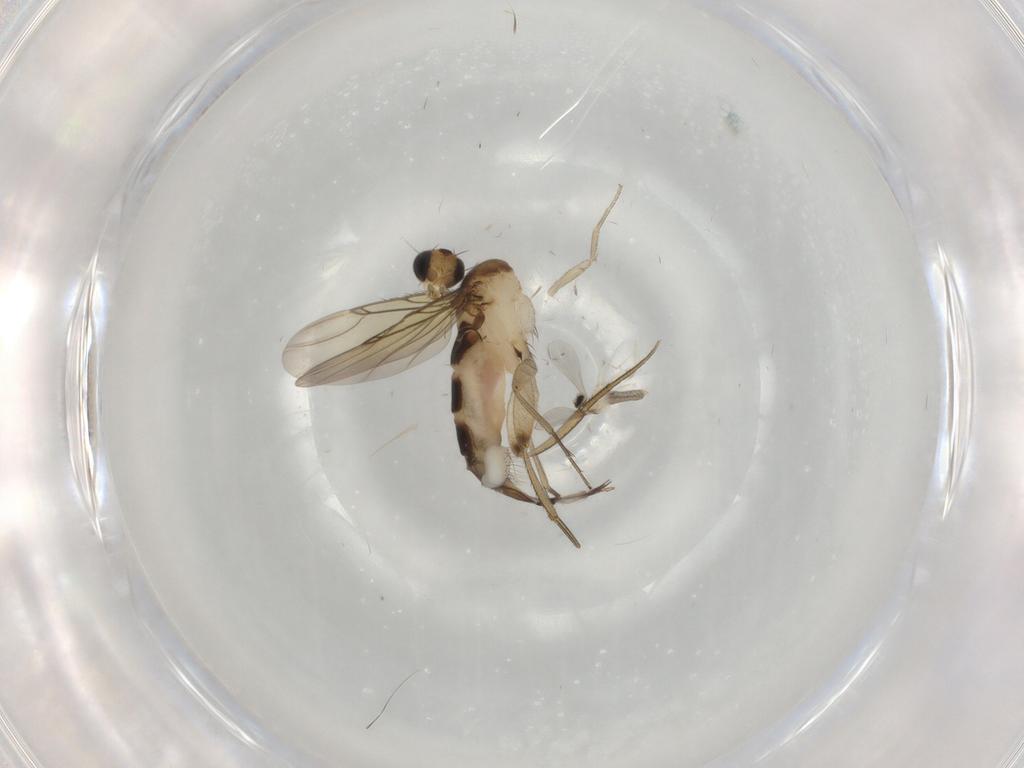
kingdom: Animalia
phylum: Arthropoda
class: Insecta
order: Diptera
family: Phoridae
